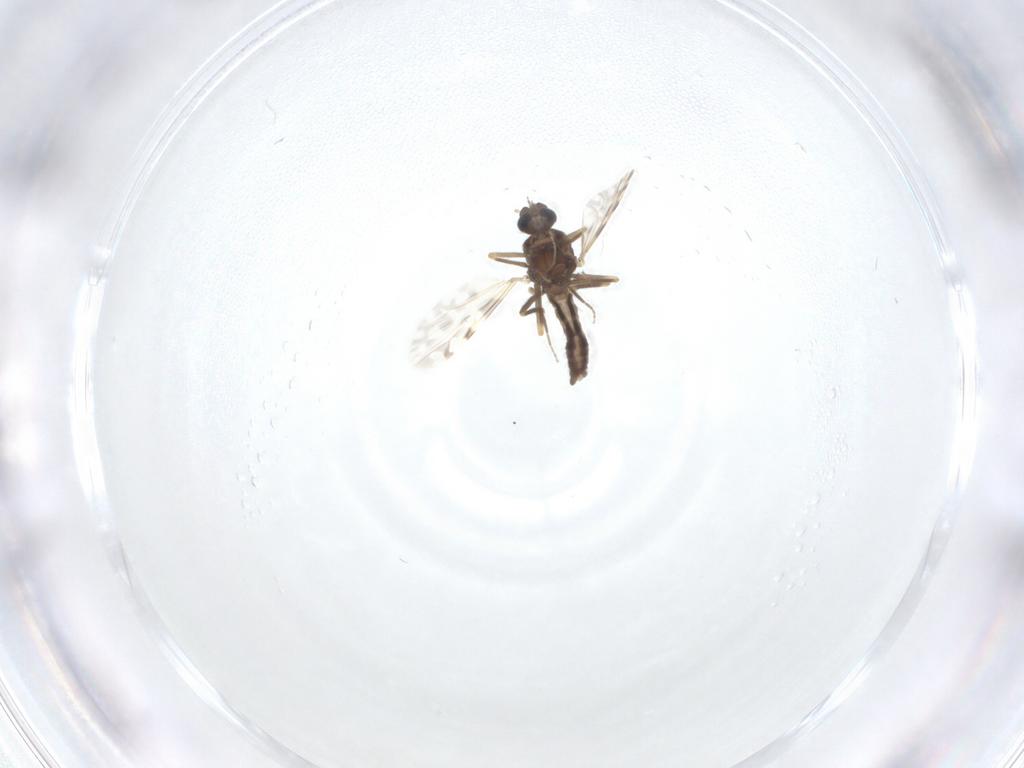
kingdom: Animalia
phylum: Arthropoda
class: Insecta
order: Diptera
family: Ceratopogonidae
